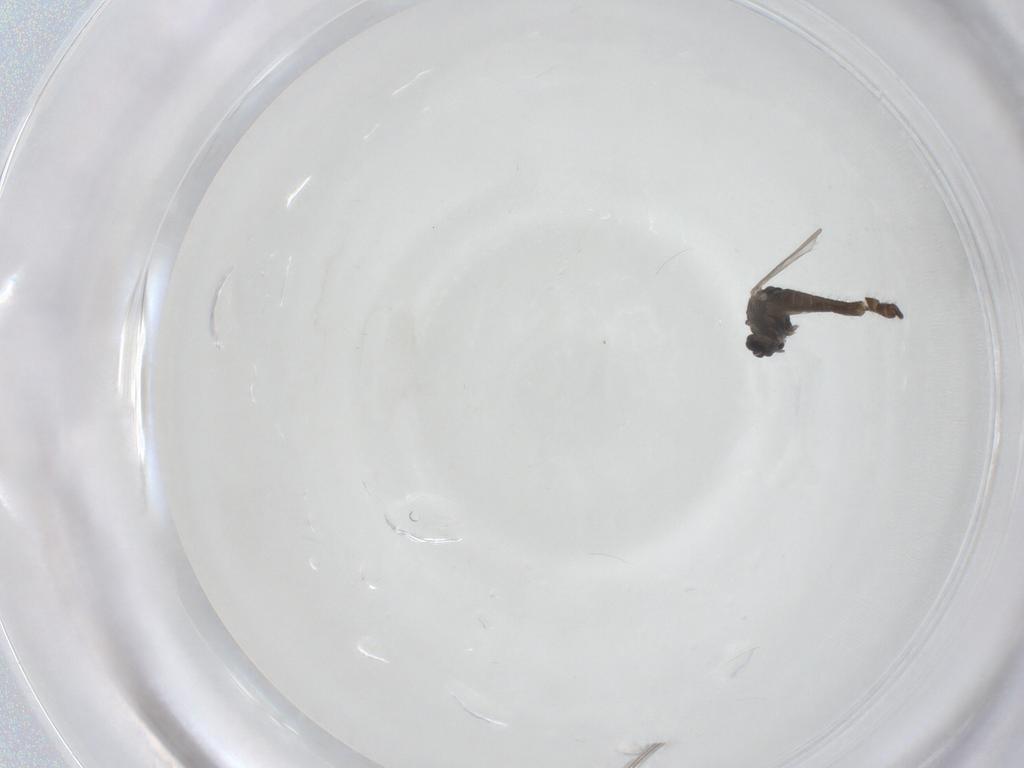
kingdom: Animalia
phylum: Arthropoda
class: Insecta
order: Diptera
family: Chironomidae
